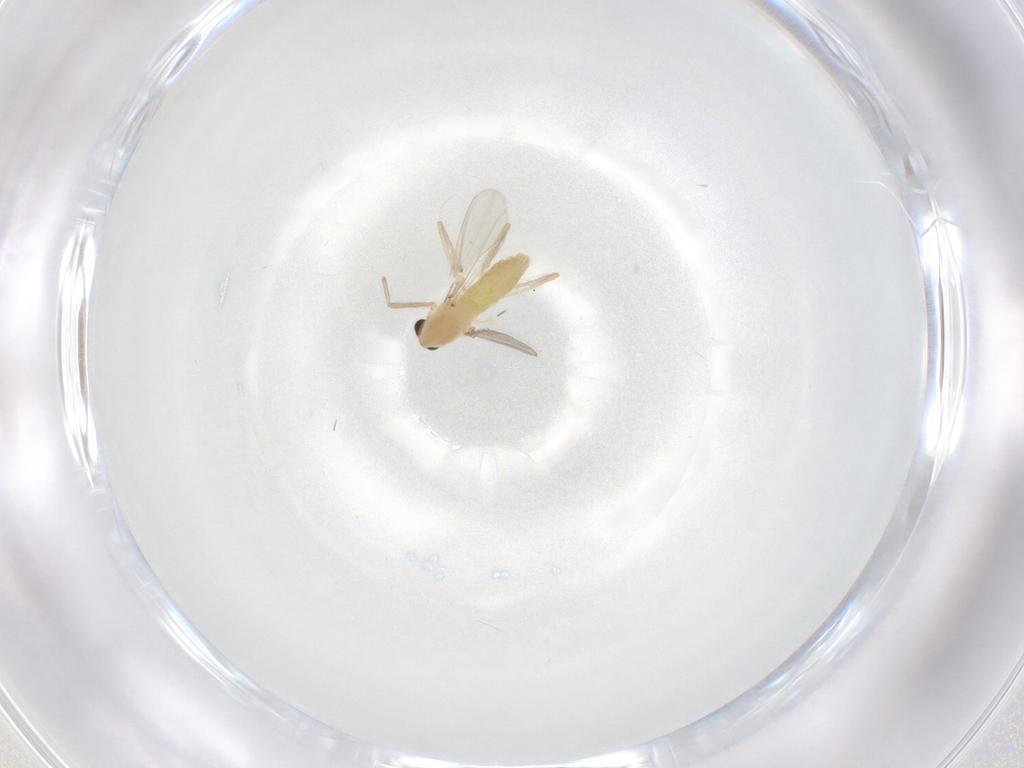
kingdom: Animalia
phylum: Arthropoda
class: Insecta
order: Diptera
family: Chironomidae
